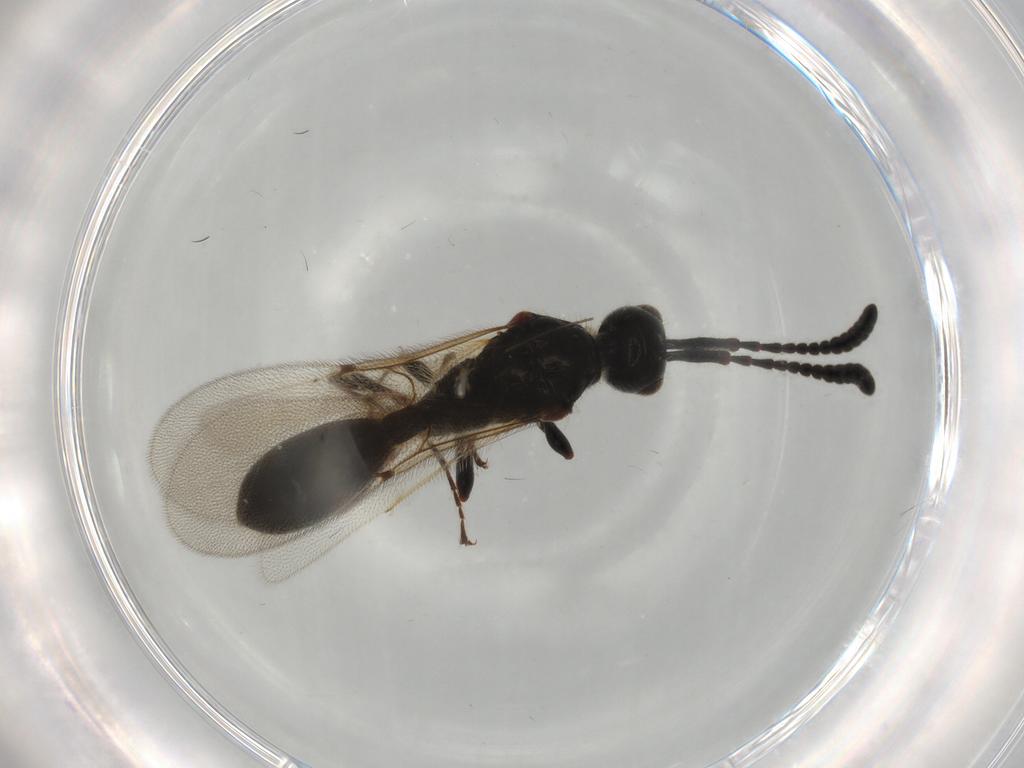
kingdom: Animalia
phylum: Arthropoda
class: Insecta
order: Hymenoptera
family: Diapriidae
